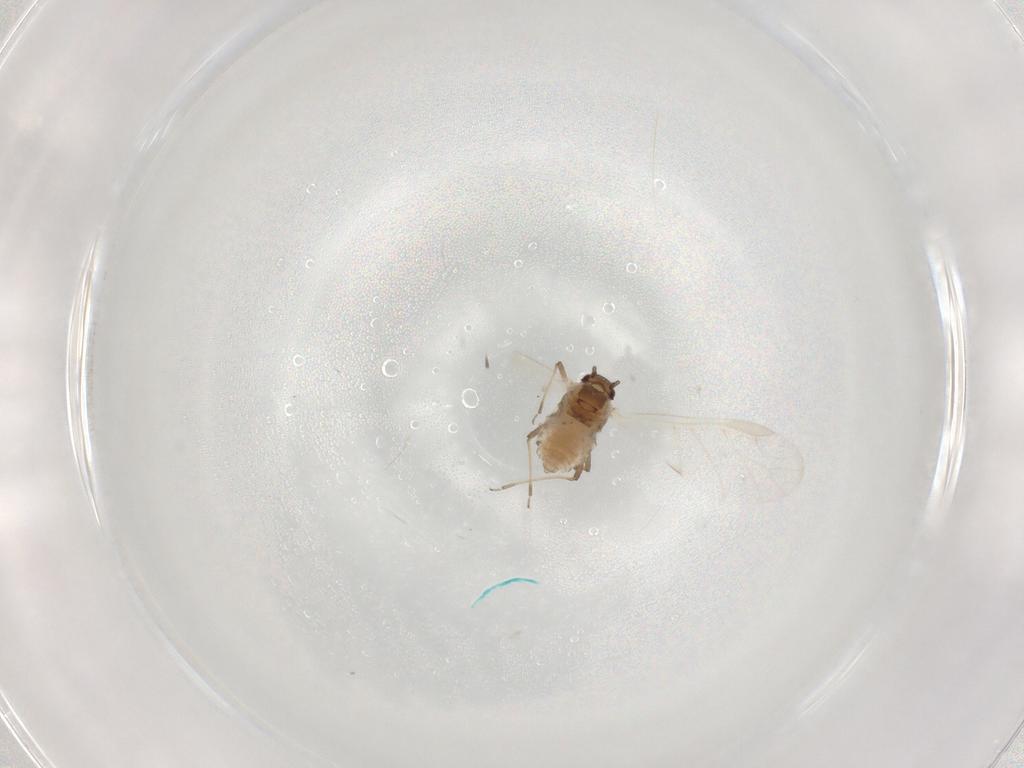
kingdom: Animalia
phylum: Arthropoda
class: Insecta
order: Hemiptera
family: Aphididae
